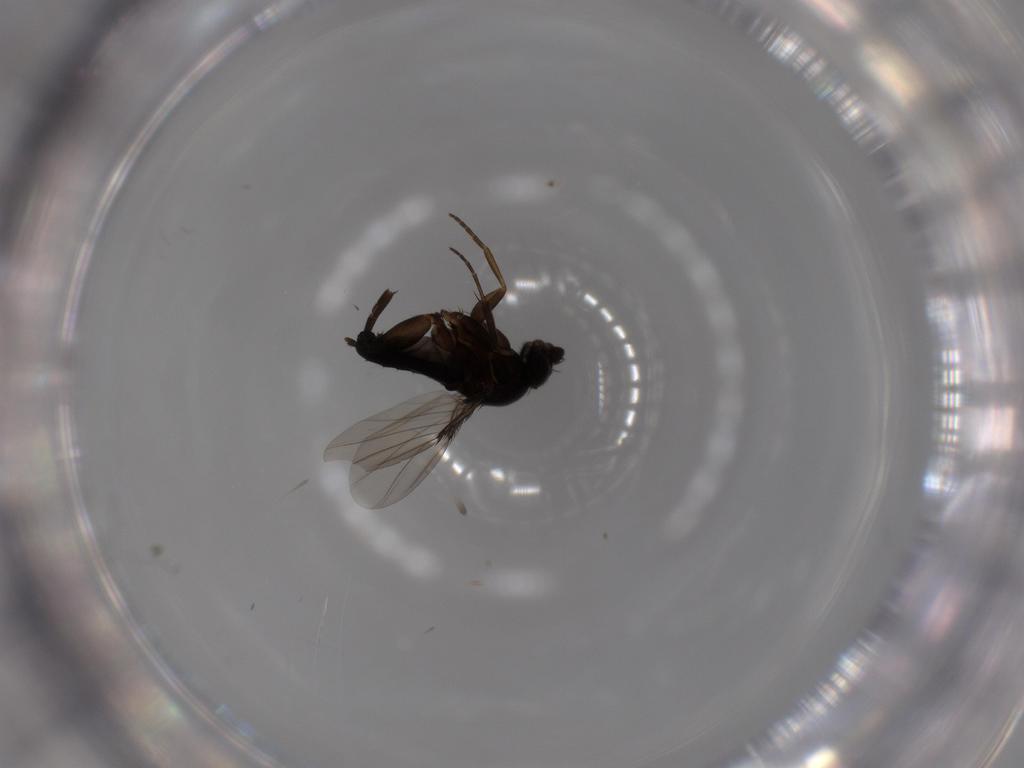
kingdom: Animalia
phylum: Arthropoda
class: Insecta
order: Diptera
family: Phoridae
